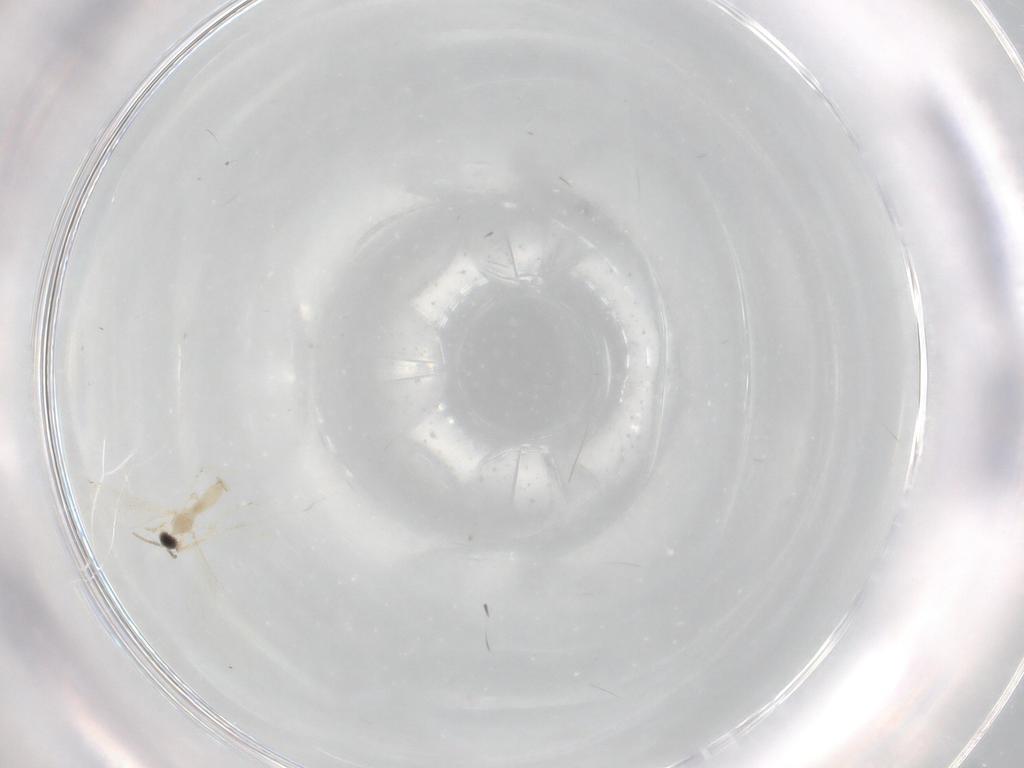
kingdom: Animalia
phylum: Arthropoda
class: Insecta
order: Diptera
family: Cecidomyiidae
